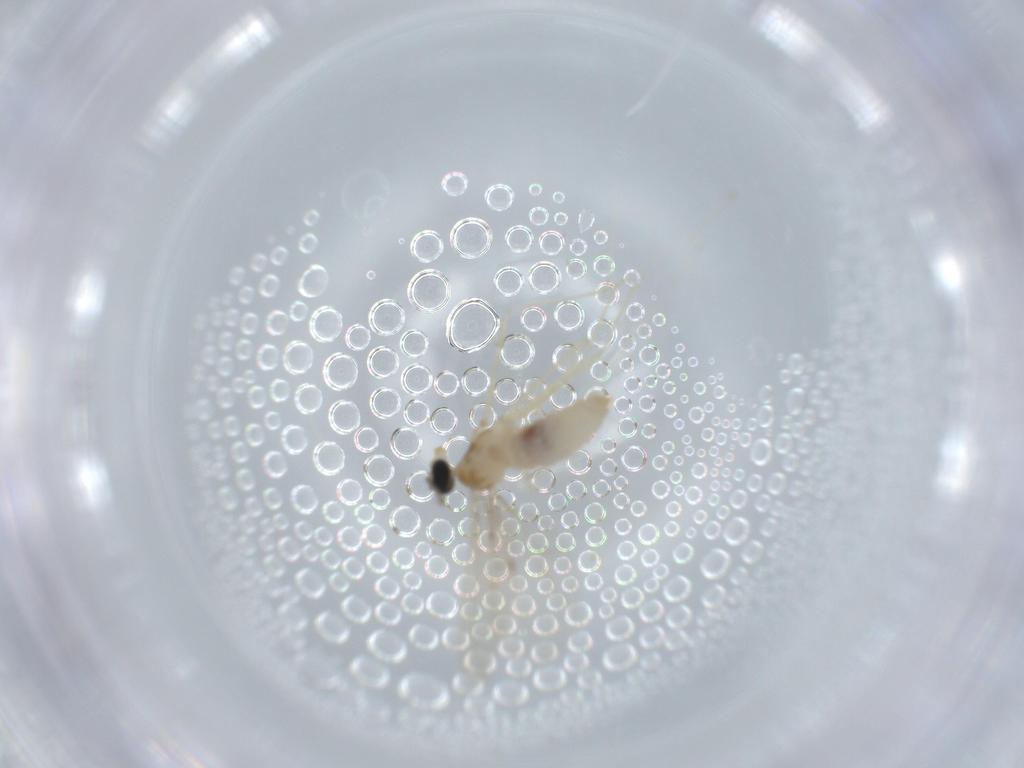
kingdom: Animalia
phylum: Arthropoda
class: Insecta
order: Diptera
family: Cecidomyiidae
